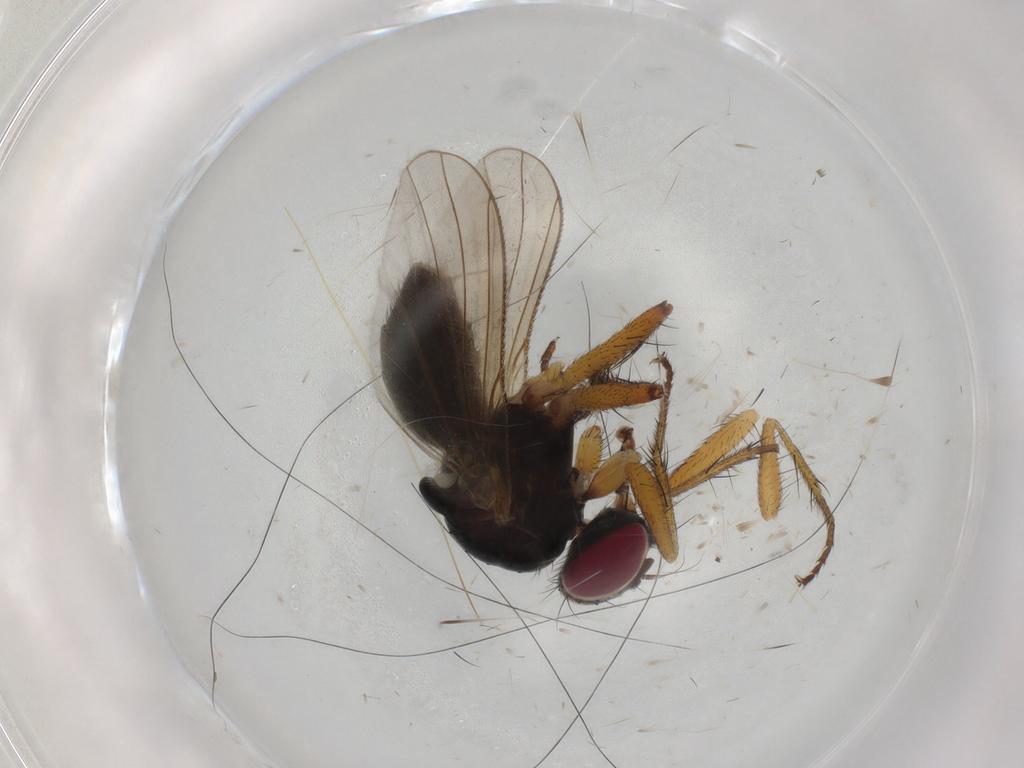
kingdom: Animalia
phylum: Arthropoda
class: Insecta
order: Diptera
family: Muscidae
